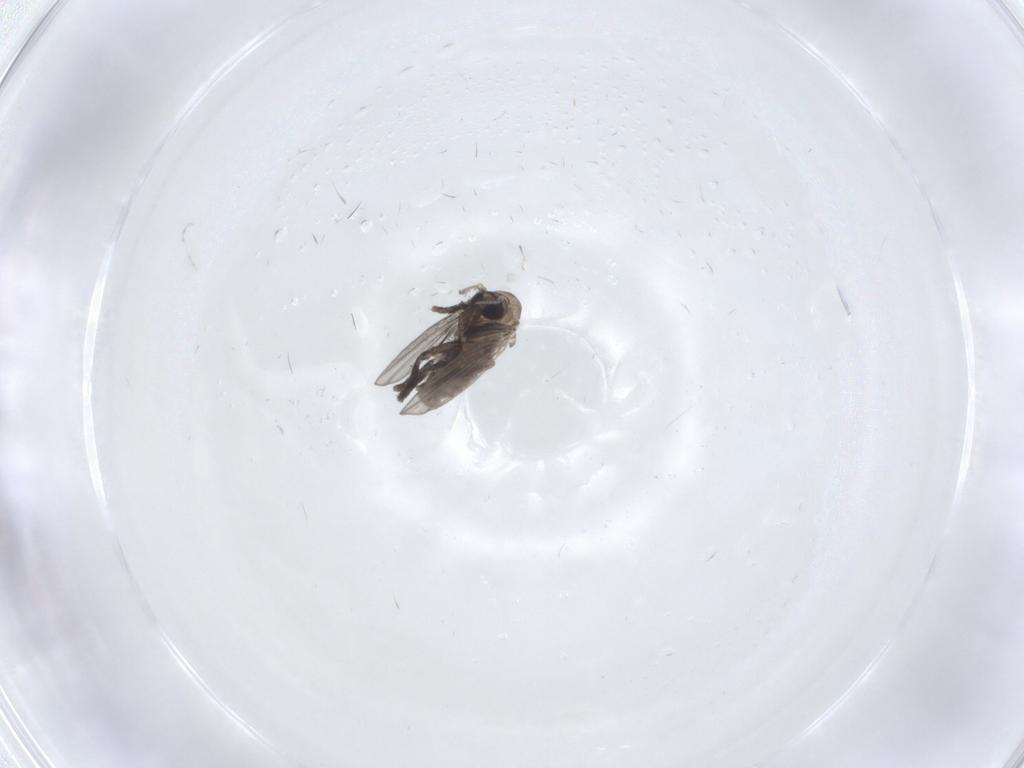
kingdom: Animalia
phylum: Arthropoda
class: Insecta
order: Diptera
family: Psychodidae
